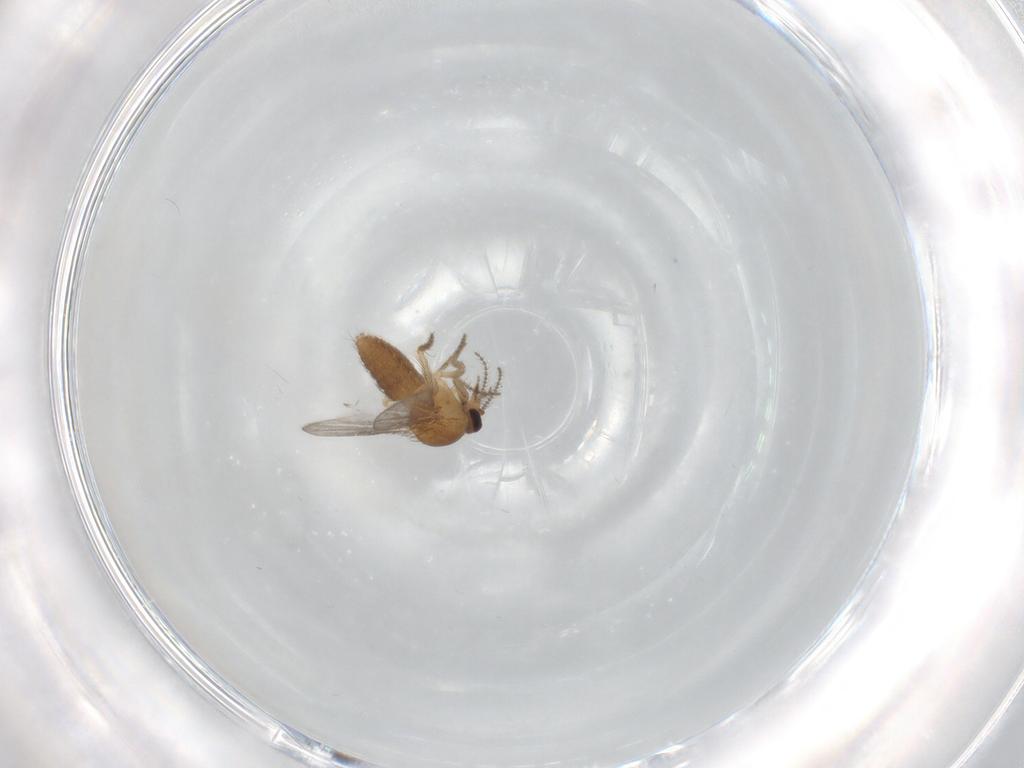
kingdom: Animalia
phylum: Arthropoda
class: Insecta
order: Diptera
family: Ceratopogonidae
